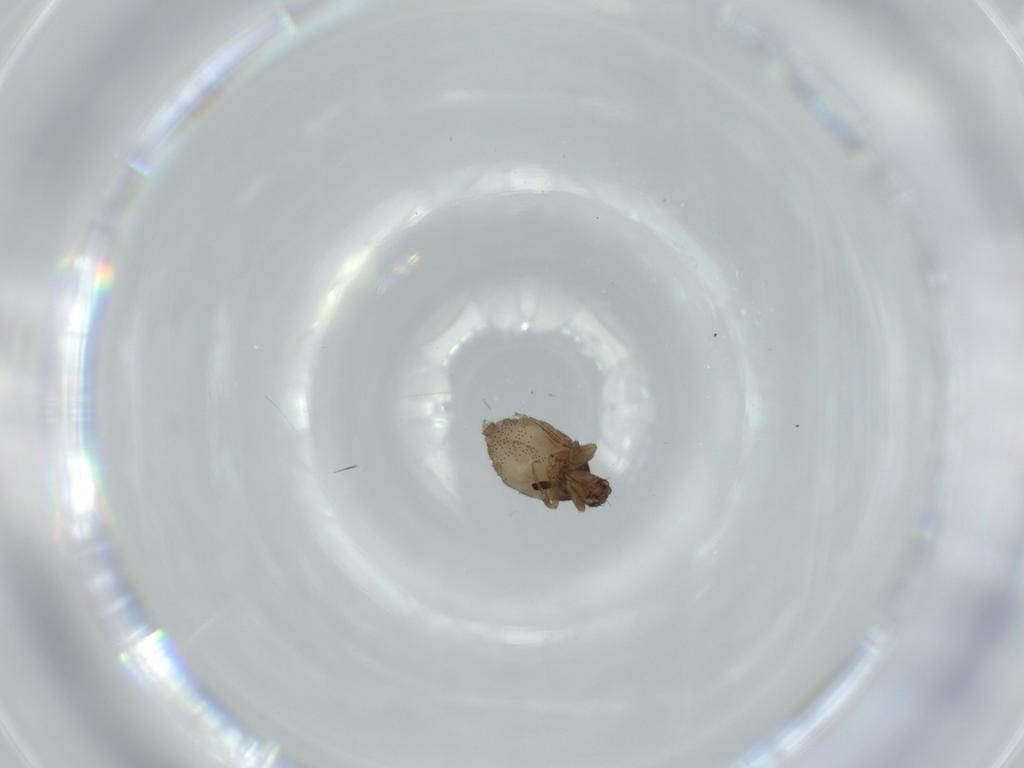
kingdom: Animalia
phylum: Arthropoda
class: Insecta
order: Diptera
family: Phoridae
